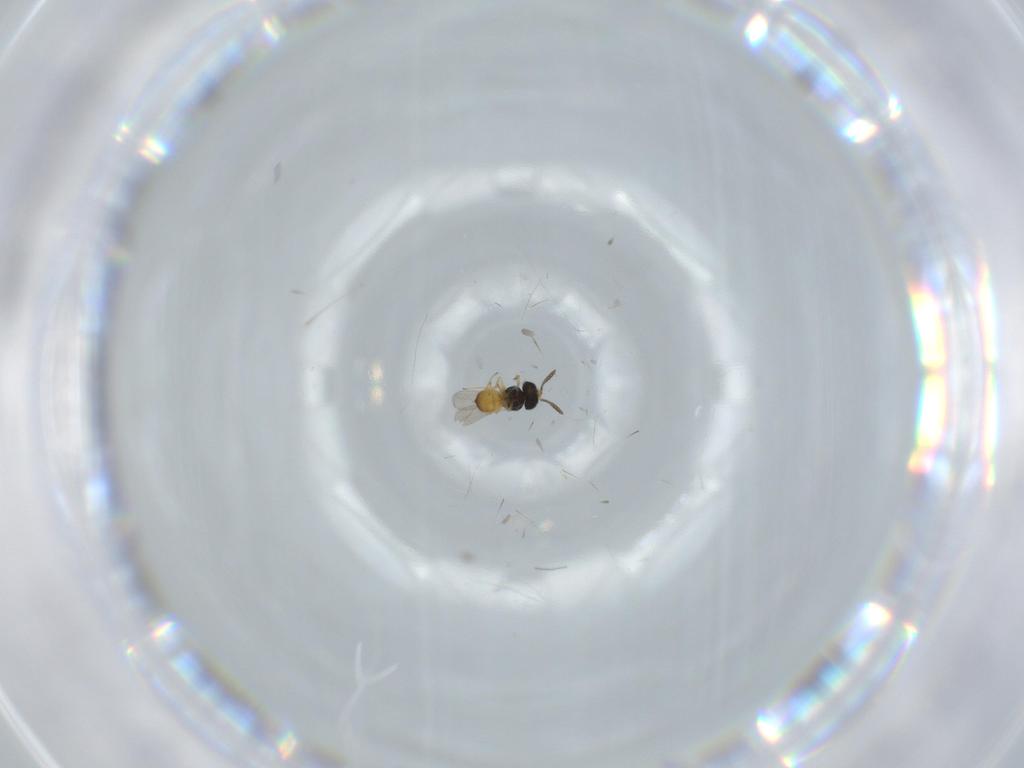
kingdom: Animalia
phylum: Arthropoda
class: Insecta
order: Hymenoptera
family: Scelionidae
